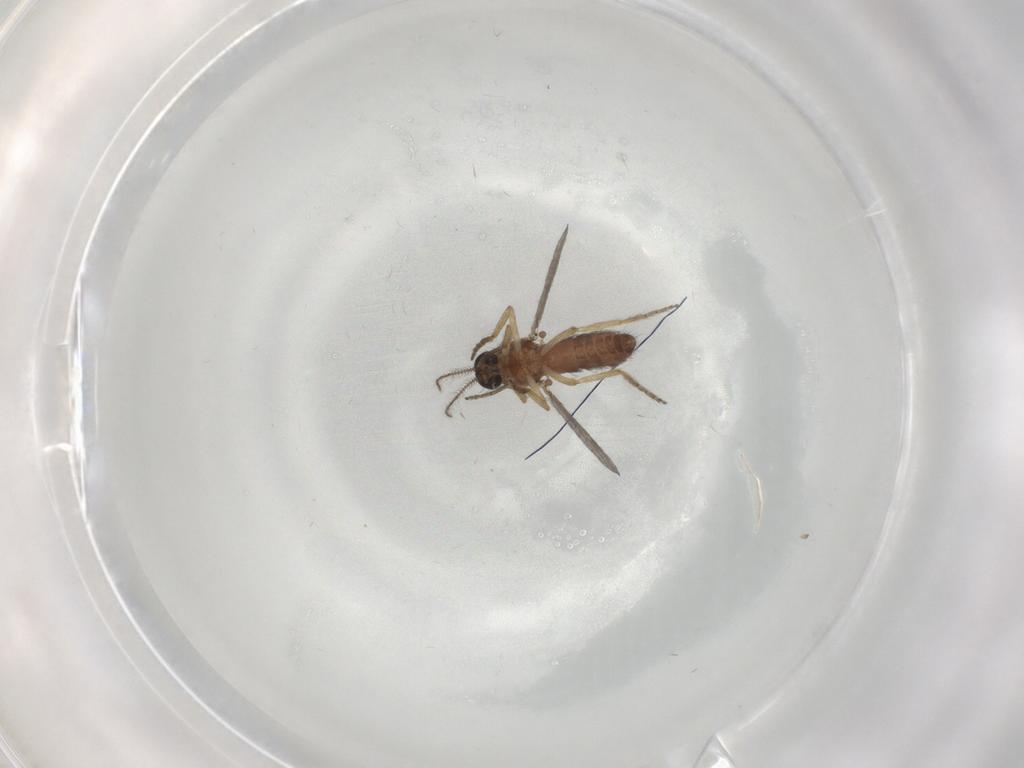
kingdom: Animalia
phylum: Arthropoda
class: Insecta
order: Diptera
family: Ceratopogonidae
